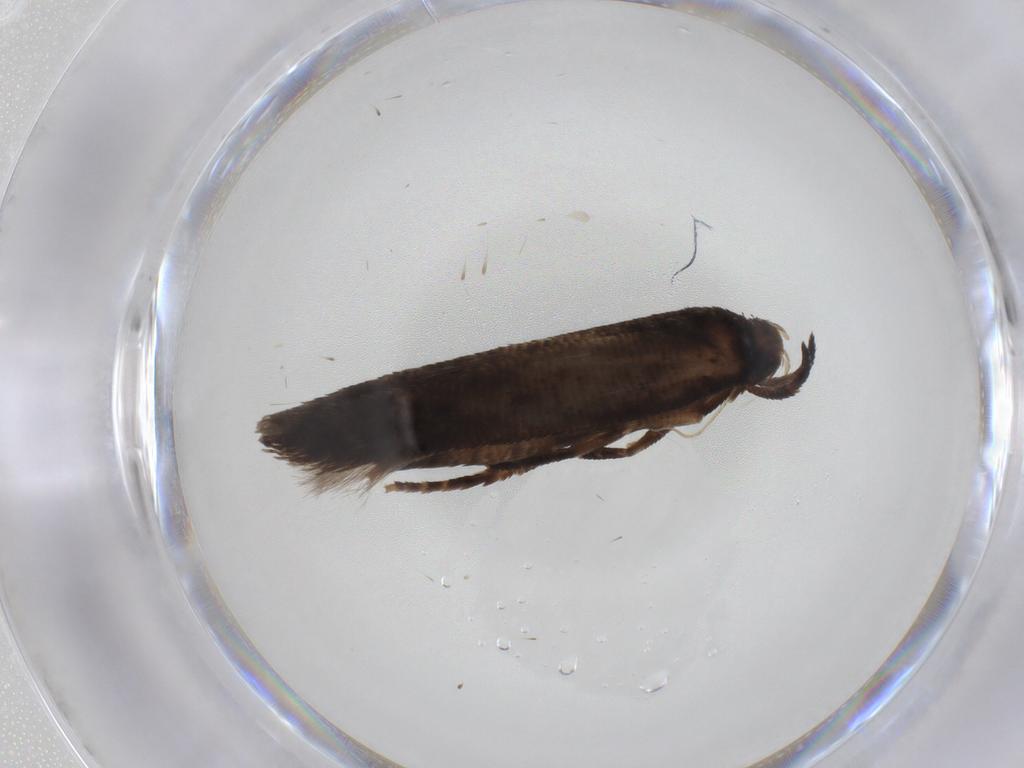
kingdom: Animalia
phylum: Arthropoda
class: Insecta
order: Lepidoptera
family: Cosmopterigidae
